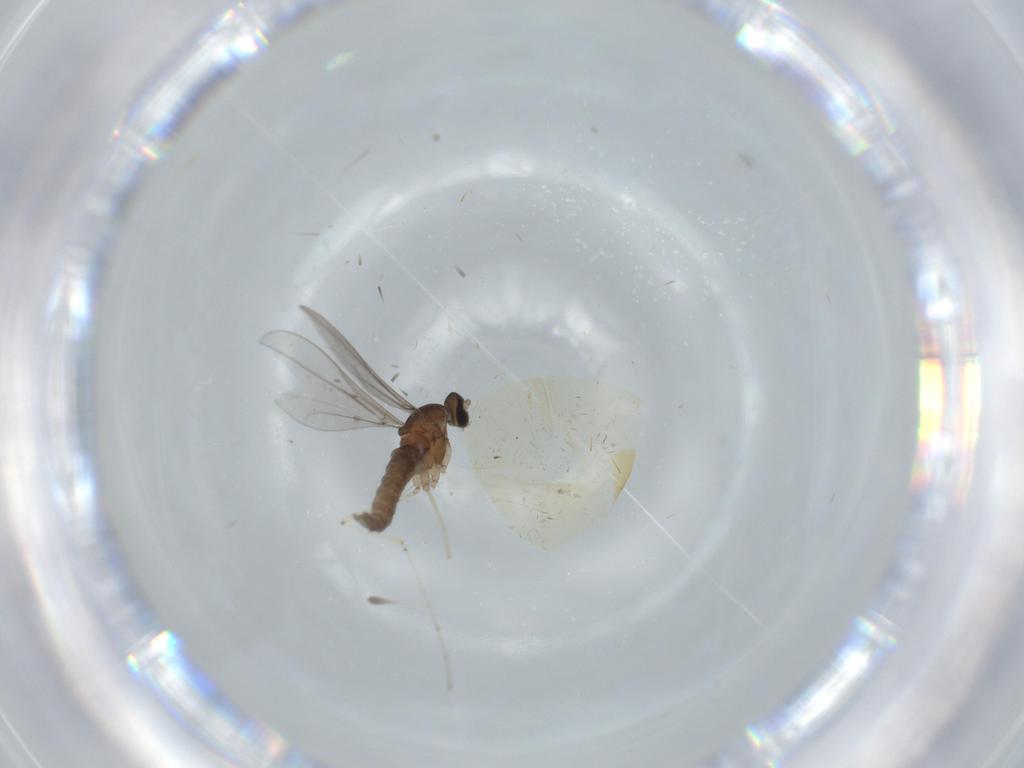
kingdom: Animalia
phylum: Arthropoda
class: Insecta
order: Diptera
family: Cecidomyiidae
